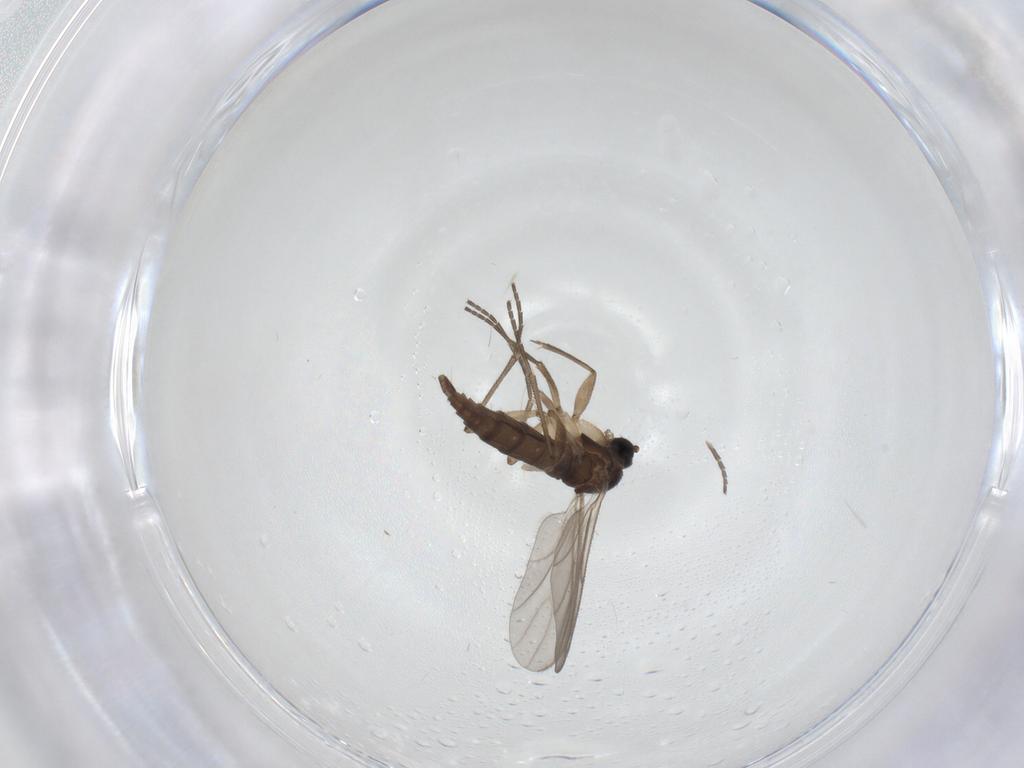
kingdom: Animalia
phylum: Arthropoda
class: Insecta
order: Diptera
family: Sciaridae
